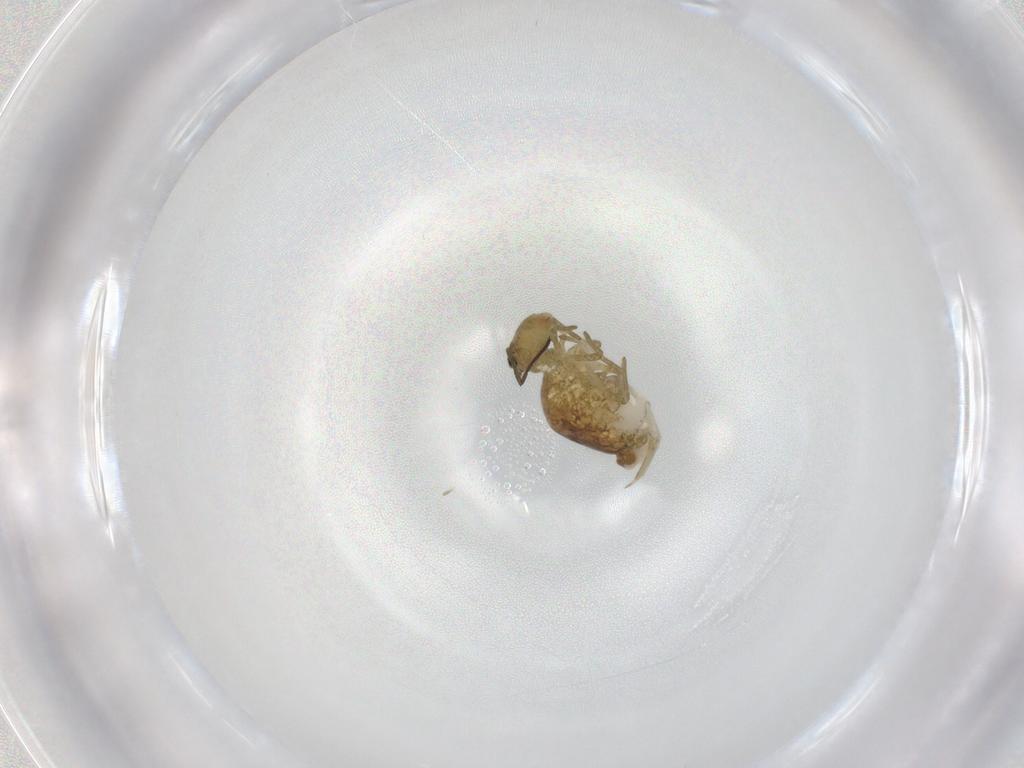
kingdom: Animalia
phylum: Arthropoda
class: Collembola
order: Symphypleona
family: Sminthuridae
